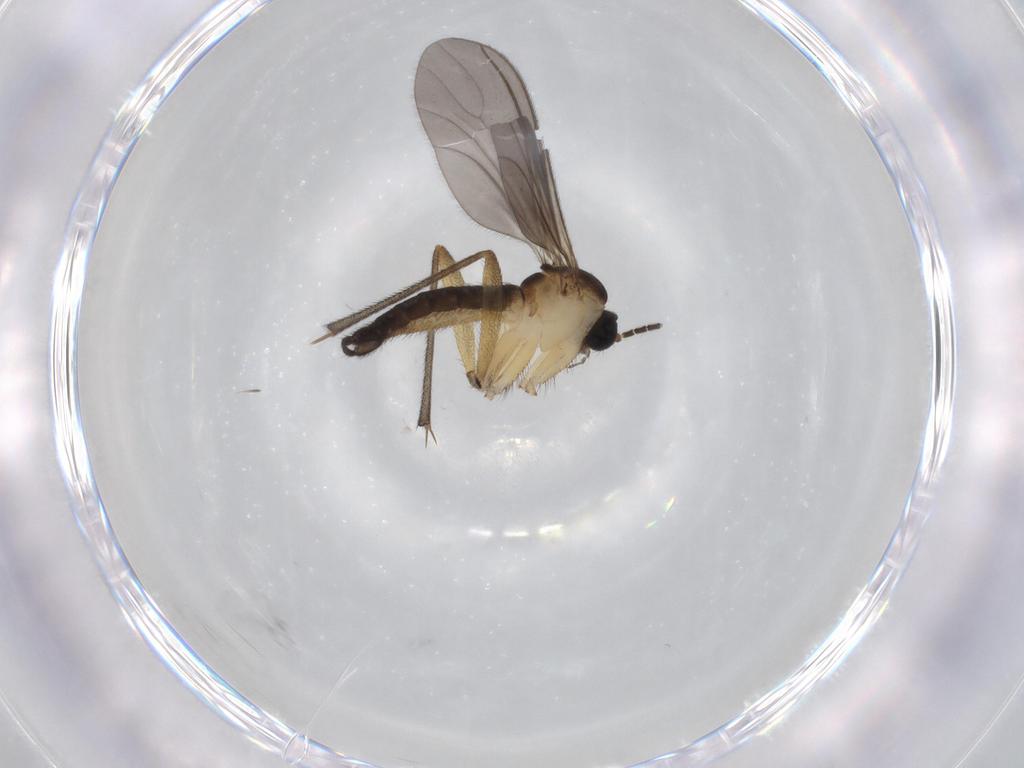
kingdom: Animalia
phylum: Arthropoda
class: Insecta
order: Diptera
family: Sciaridae
